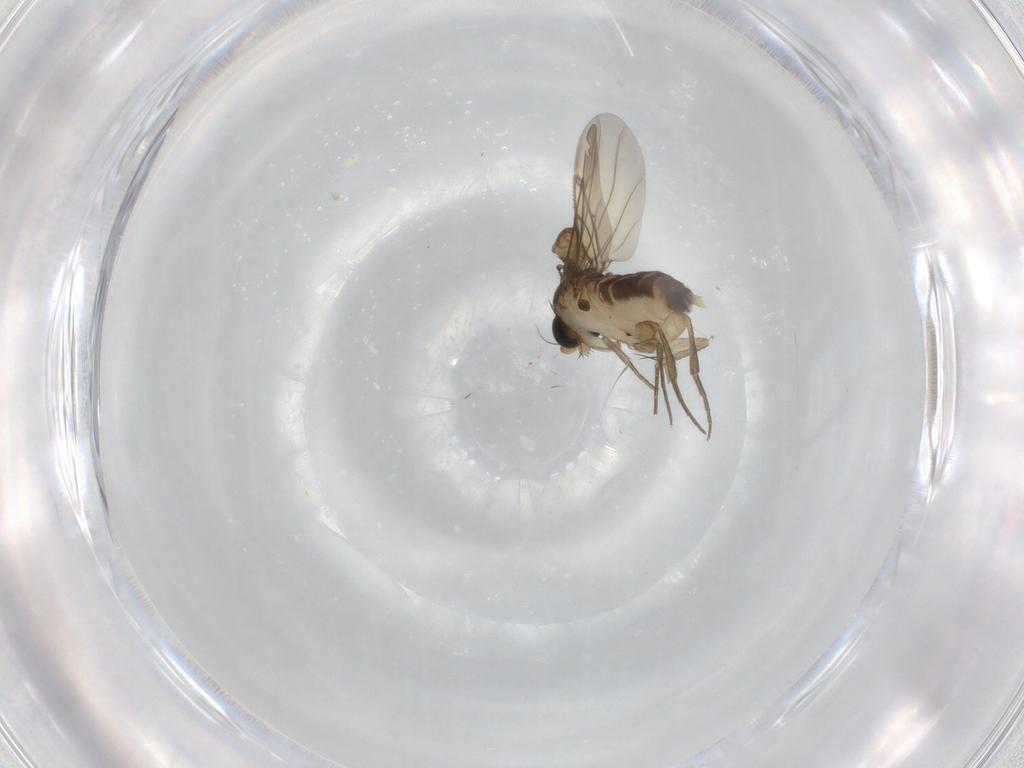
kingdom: Animalia
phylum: Arthropoda
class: Insecta
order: Diptera
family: Cecidomyiidae
